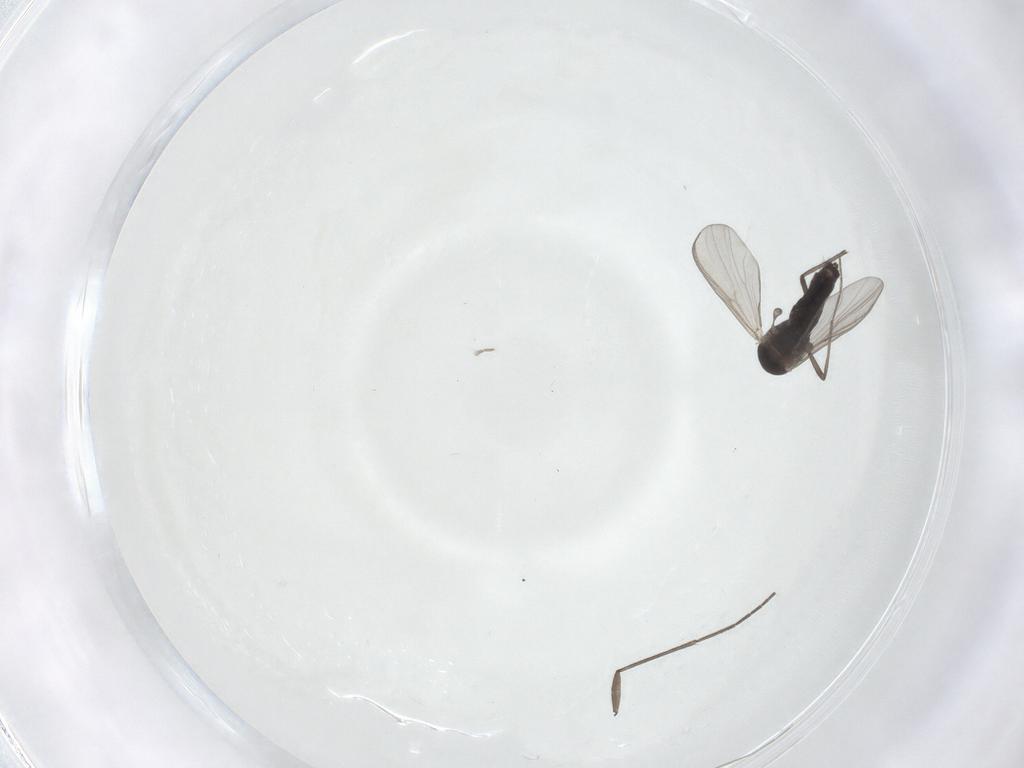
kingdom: Animalia
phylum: Arthropoda
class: Insecta
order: Diptera
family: Chironomidae
